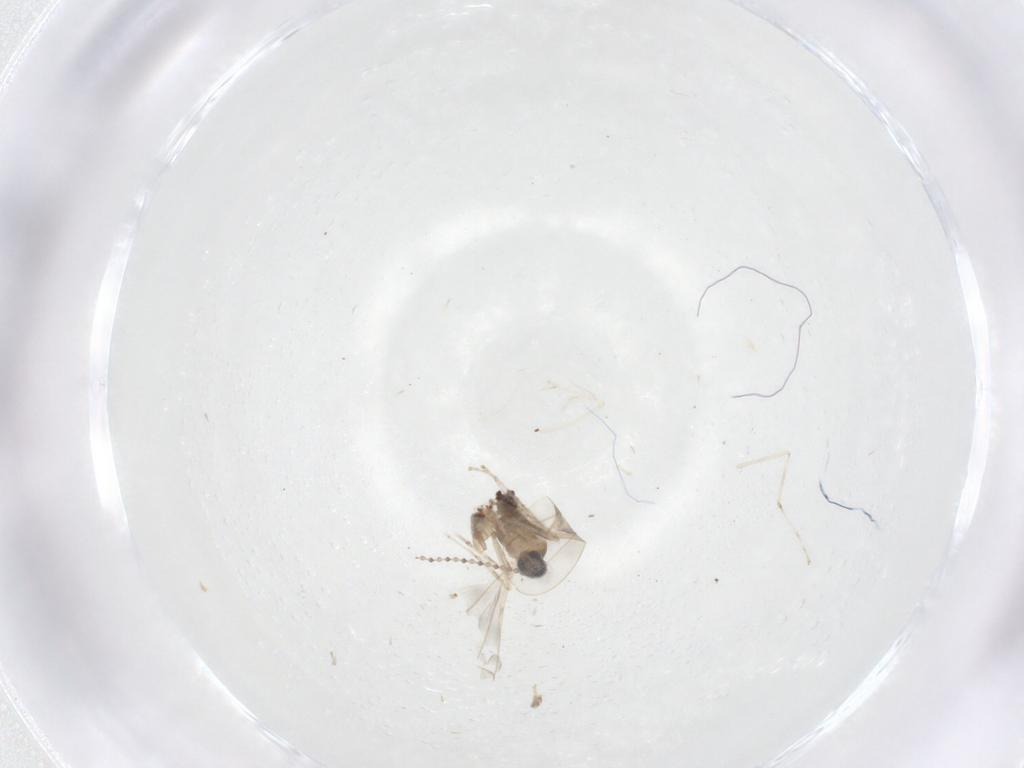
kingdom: Animalia
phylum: Arthropoda
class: Insecta
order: Diptera
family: Cecidomyiidae
